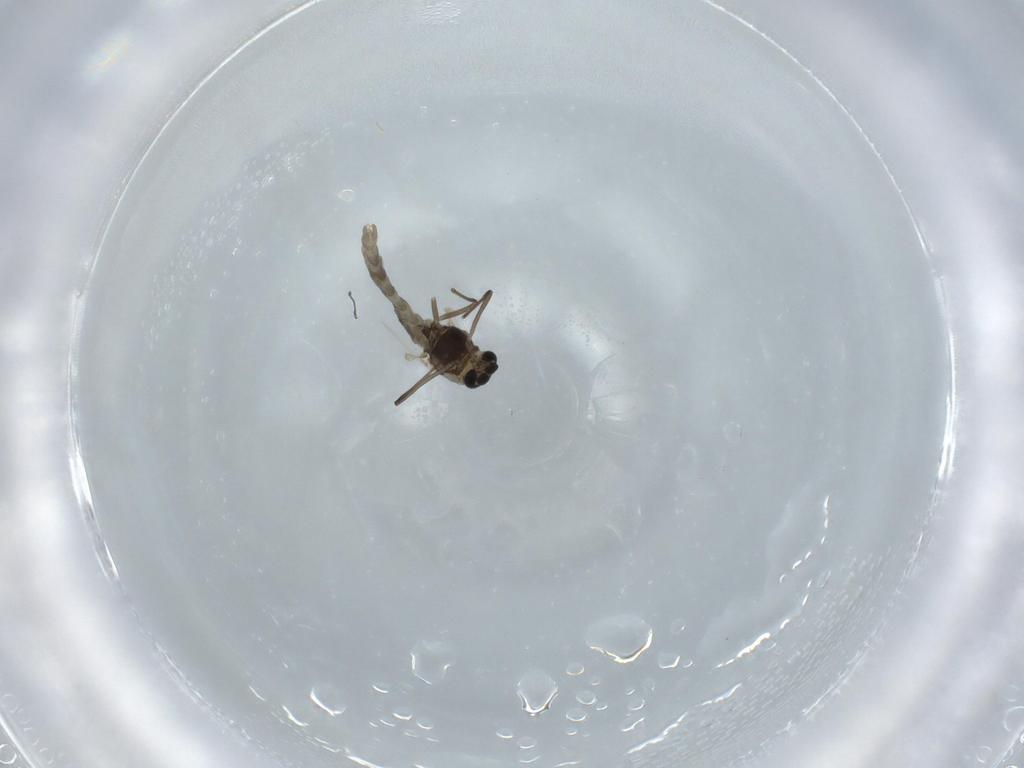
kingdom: Animalia
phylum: Arthropoda
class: Insecta
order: Diptera
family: Chironomidae
